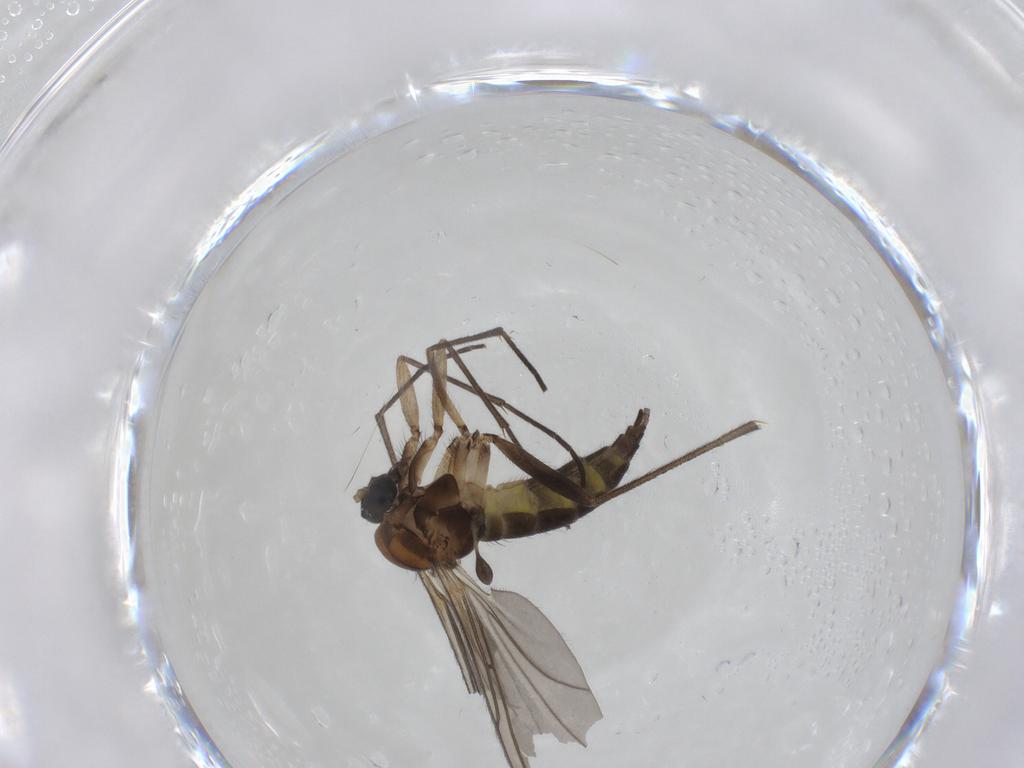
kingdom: Animalia
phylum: Arthropoda
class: Insecta
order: Diptera
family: Sciaridae
